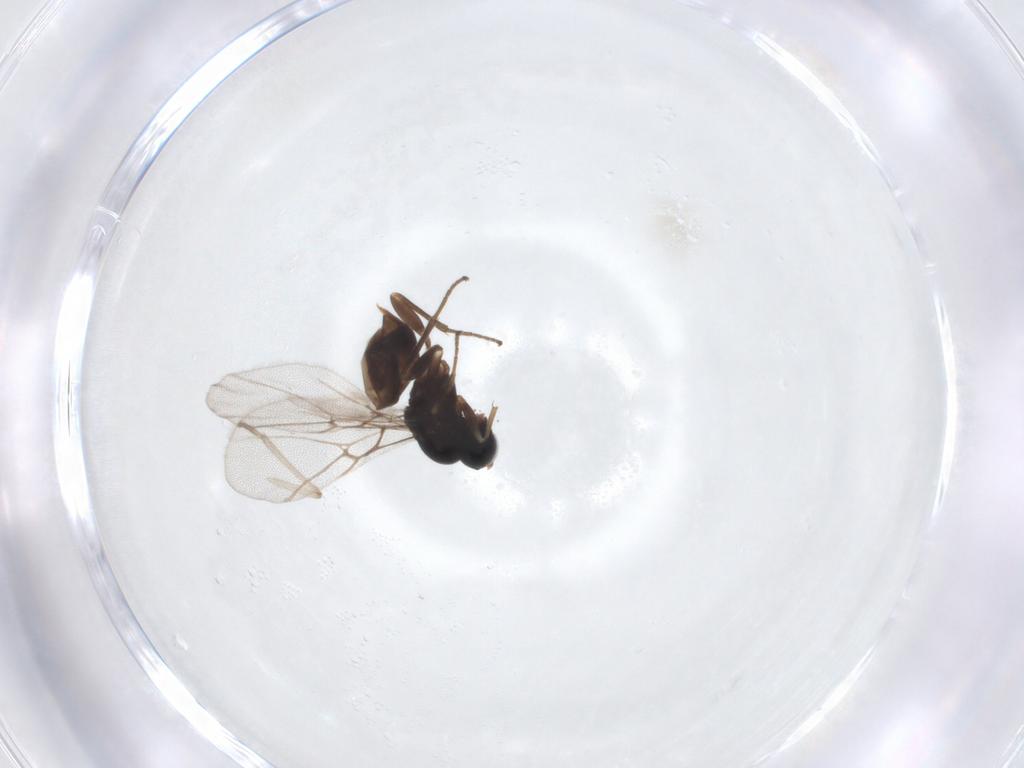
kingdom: Animalia
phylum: Arthropoda
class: Insecta
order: Hymenoptera
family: Cynipidae
